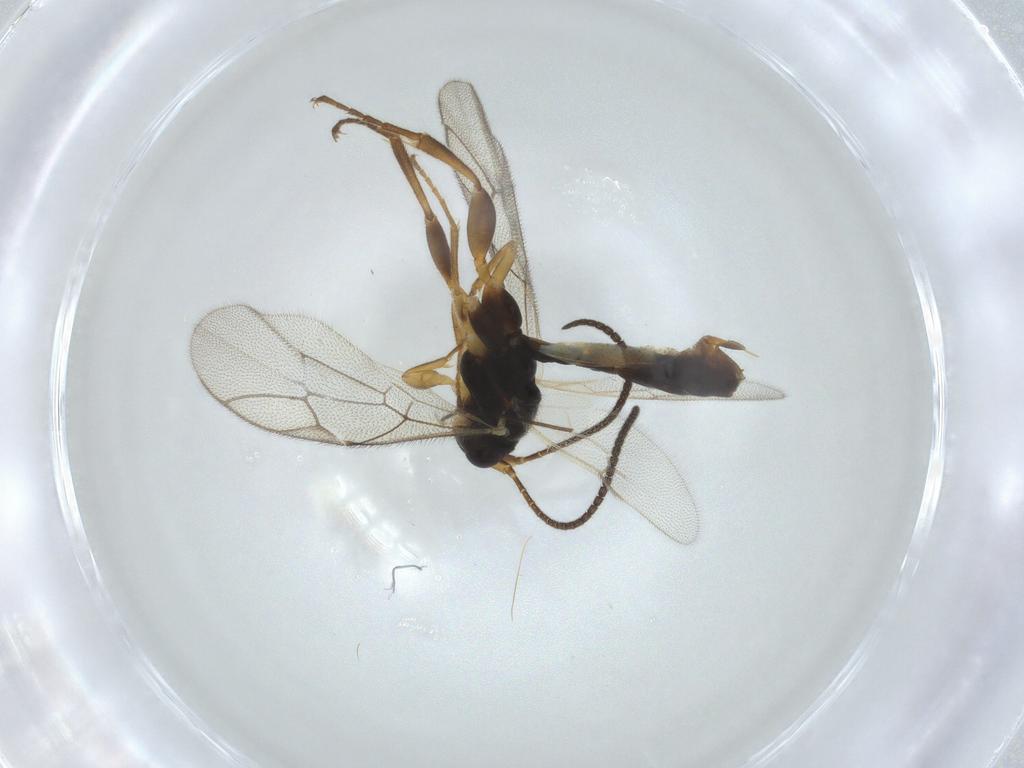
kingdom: Animalia
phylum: Arthropoda
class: Insecta
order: Hymenoptera
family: Ichneumonidae
